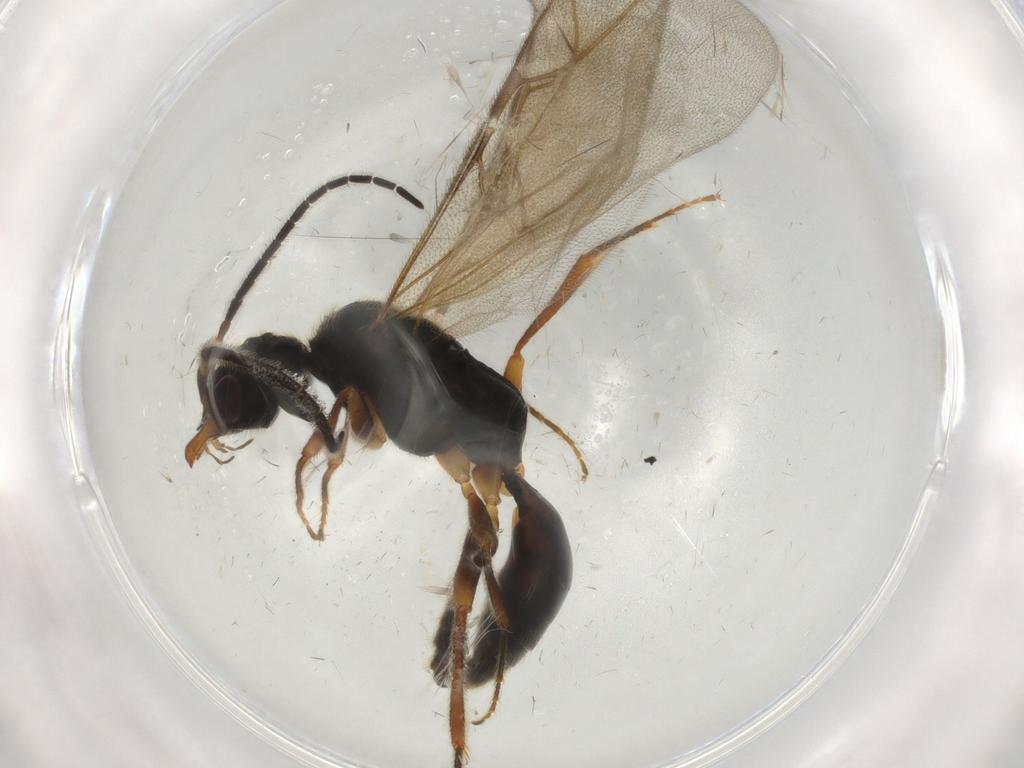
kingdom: Animalia
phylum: Arthropoda
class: Insecta
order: Hymenoptera
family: Bethylidae
